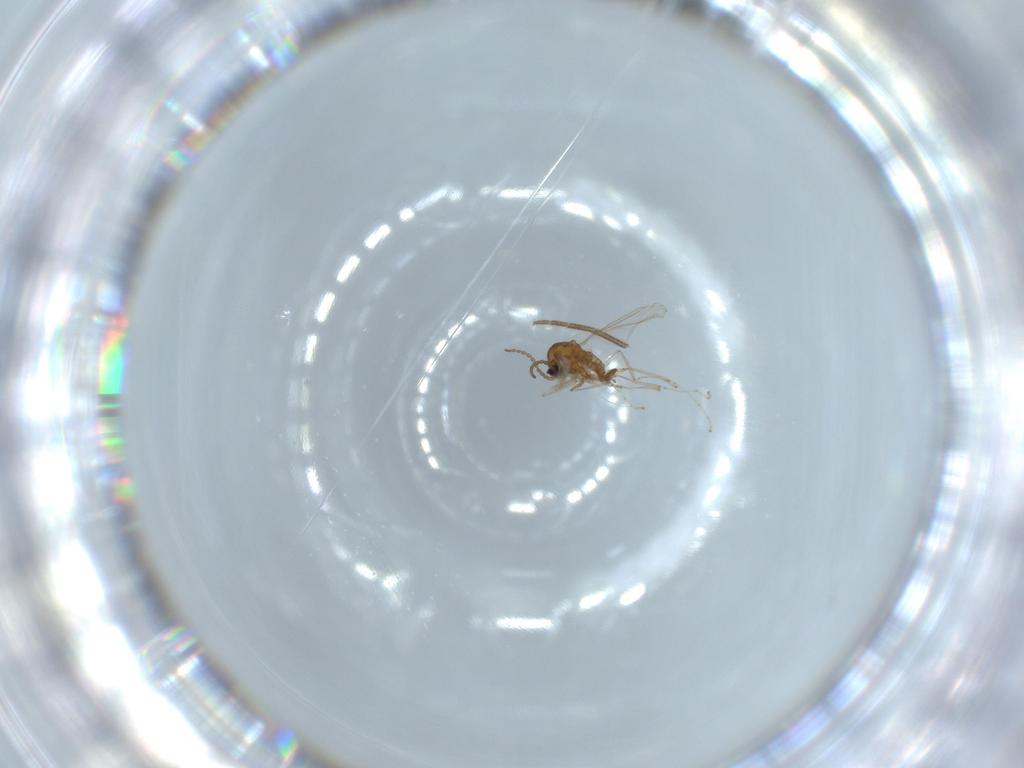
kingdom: Animalia
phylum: Arthropoda
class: Insecta
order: Diptera
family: Cecidomyiidae
